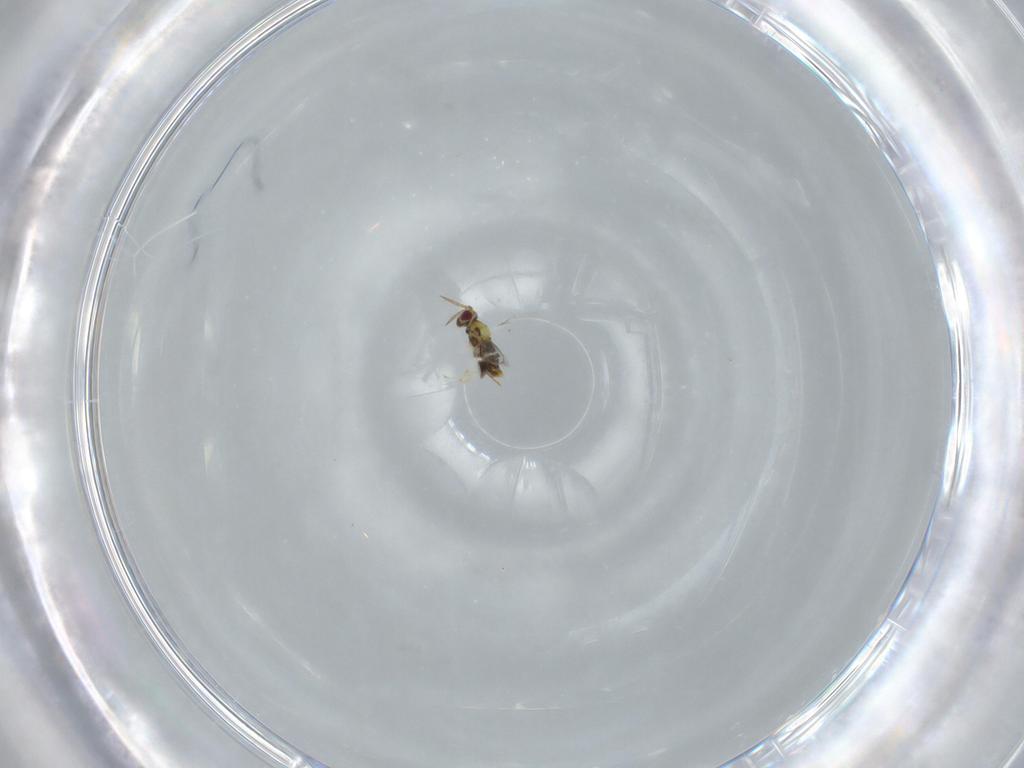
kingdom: Animalia
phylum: Arthropoda
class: Insecta
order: Hymenoptera
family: Aphelinidae
